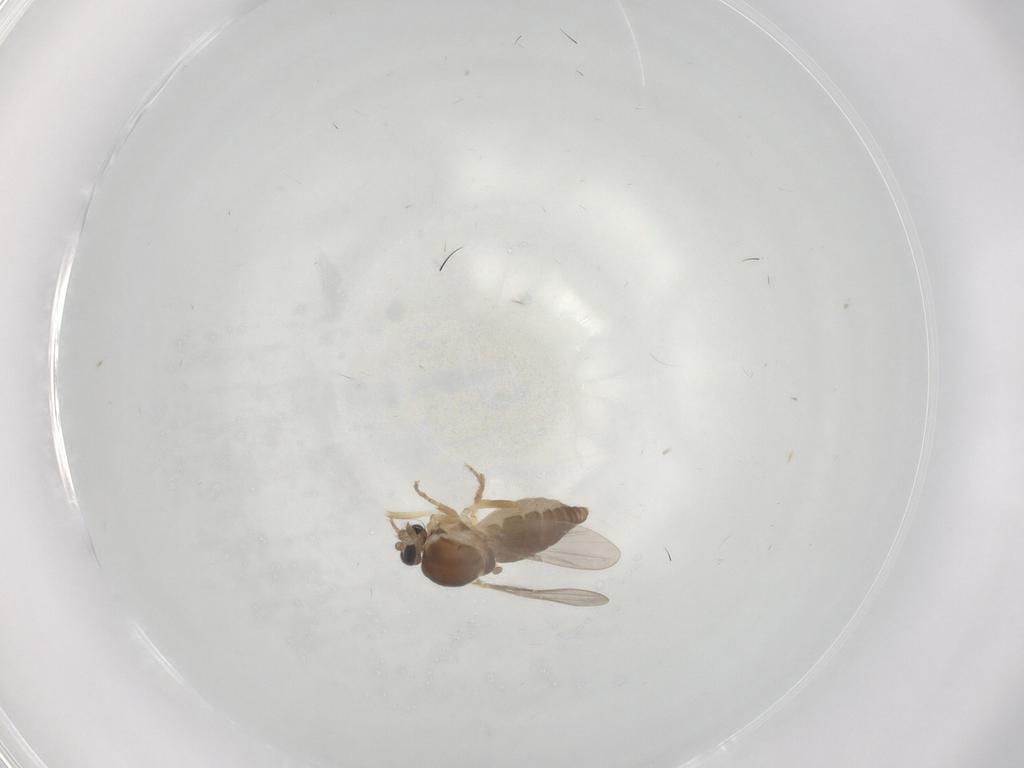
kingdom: Animalia
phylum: Arthropoda
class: Insecta
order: Diptera
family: Ceratopogonidae
